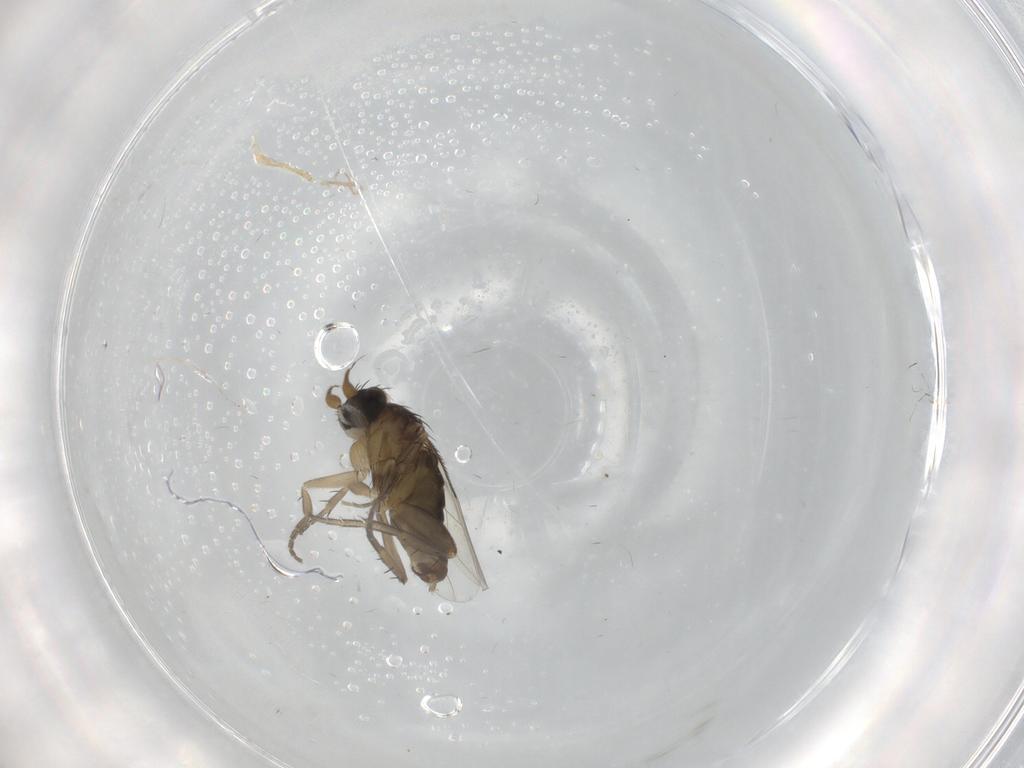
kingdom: Animalia
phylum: Arthropoda
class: Insecta
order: Diptera
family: Phoridae
